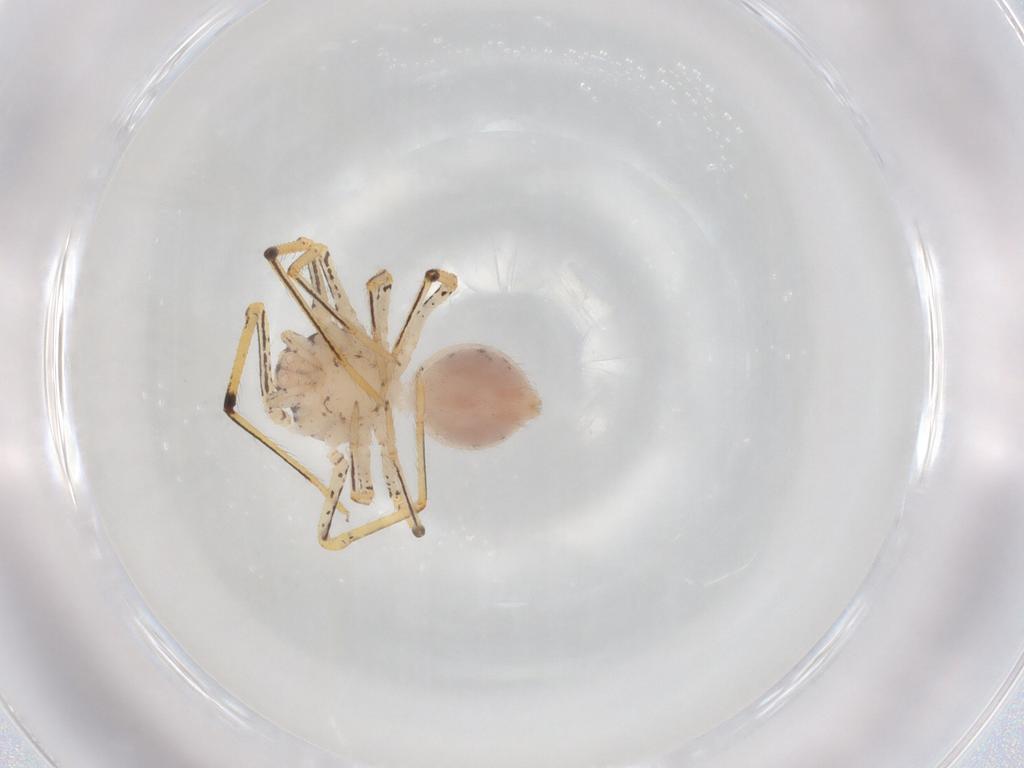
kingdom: Animalia
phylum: Arthropoda
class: Arachnida
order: Araneae
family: Scytodidae
